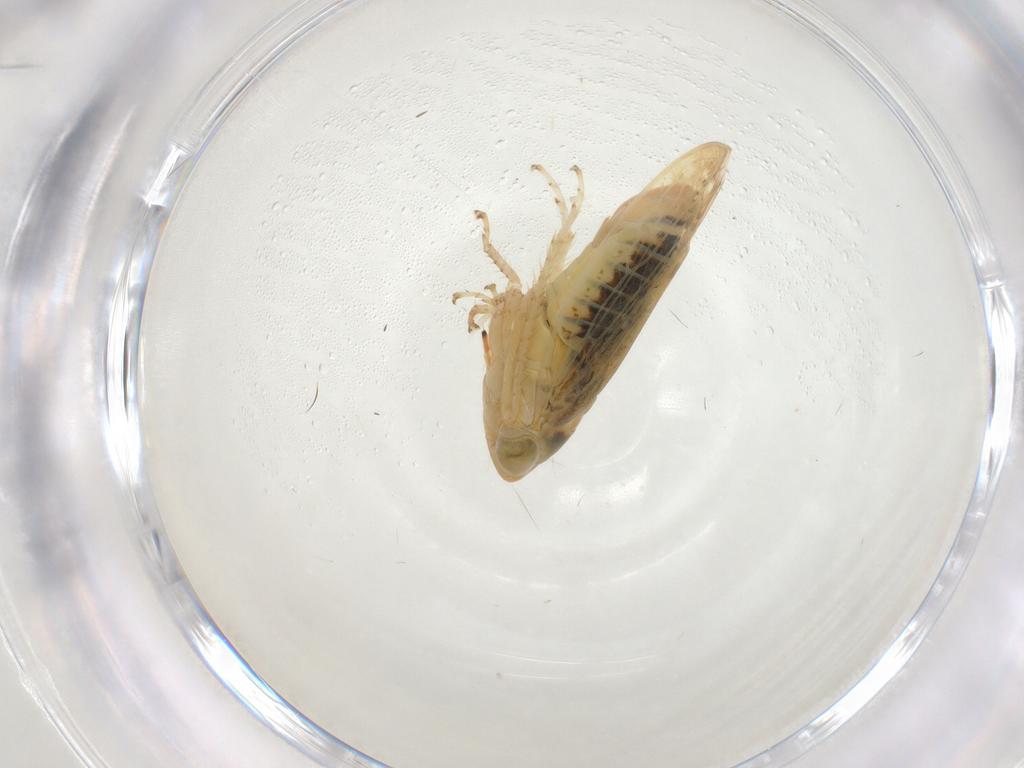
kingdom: Animalia
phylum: Arthropoda
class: Insecta
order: Hemiptera
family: Cicadellidae
